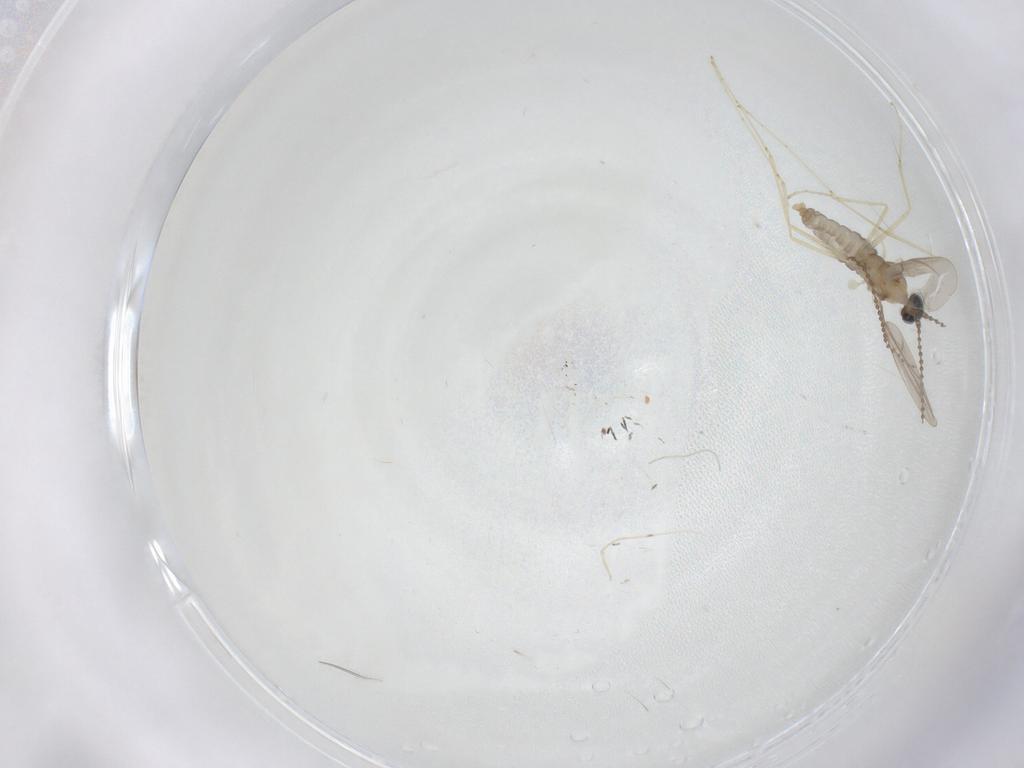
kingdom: Animalia
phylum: Arthropoda
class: Insecta
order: Diptera
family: Cecidomyiidae
